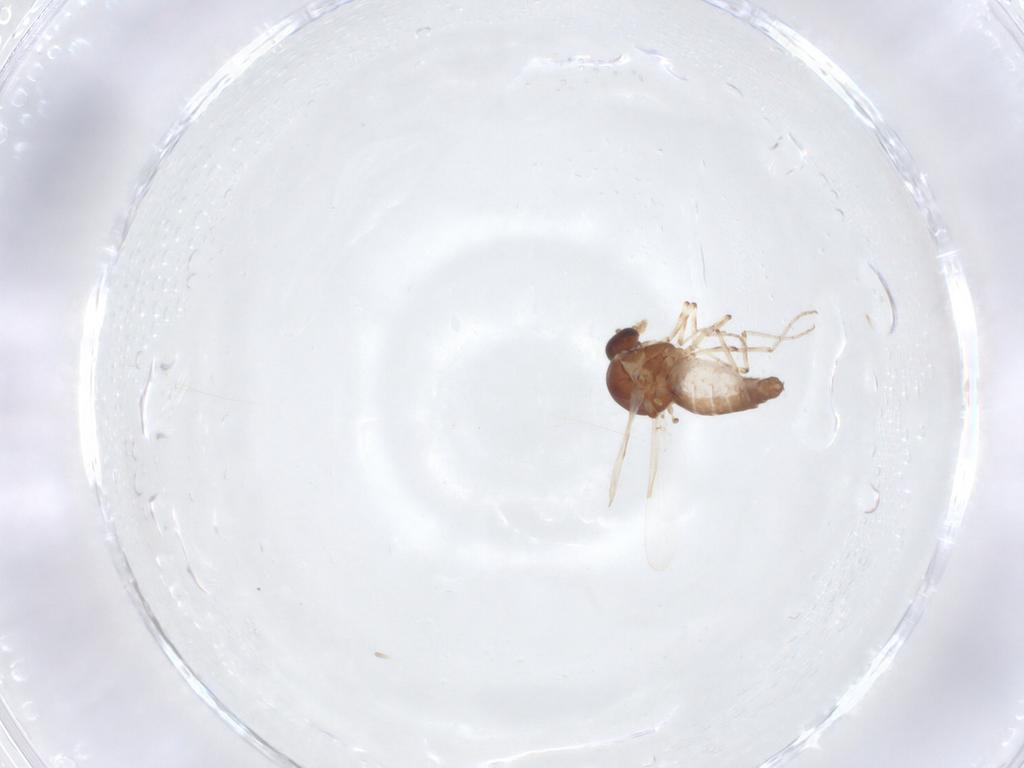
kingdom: Animalia
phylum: Arthropoda
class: Insecta
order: Diptera
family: Ceratopogonidae
